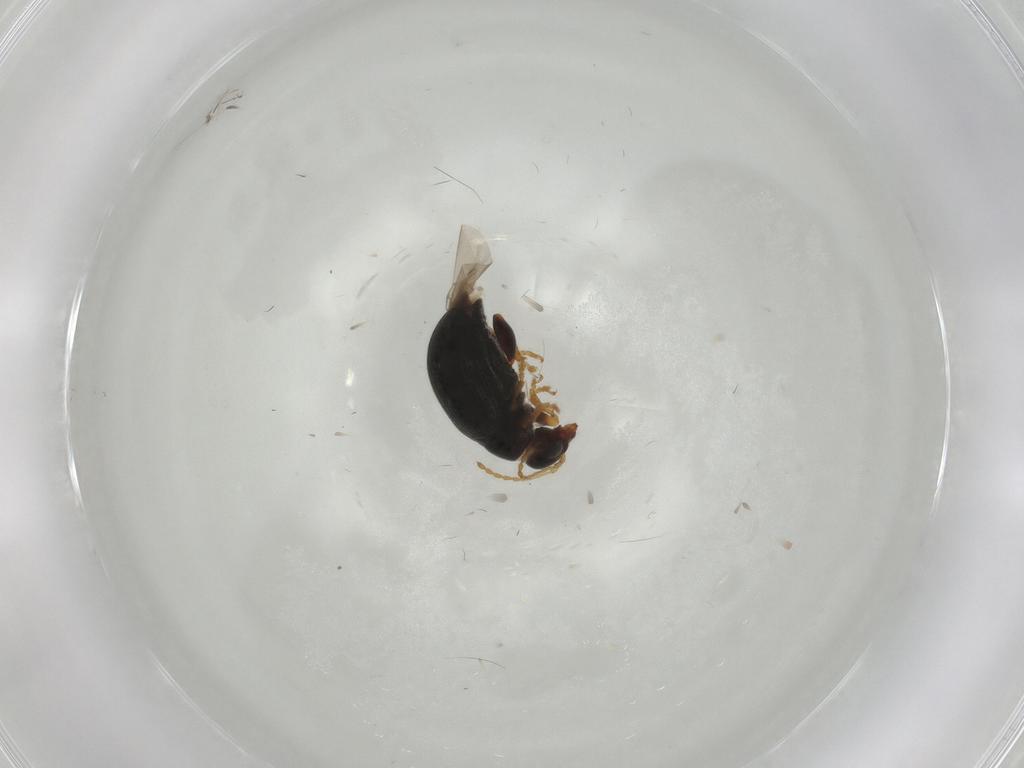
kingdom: Animalia
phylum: Arthropoda
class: Insecta
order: Coleoptera
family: Chrysomelidae
